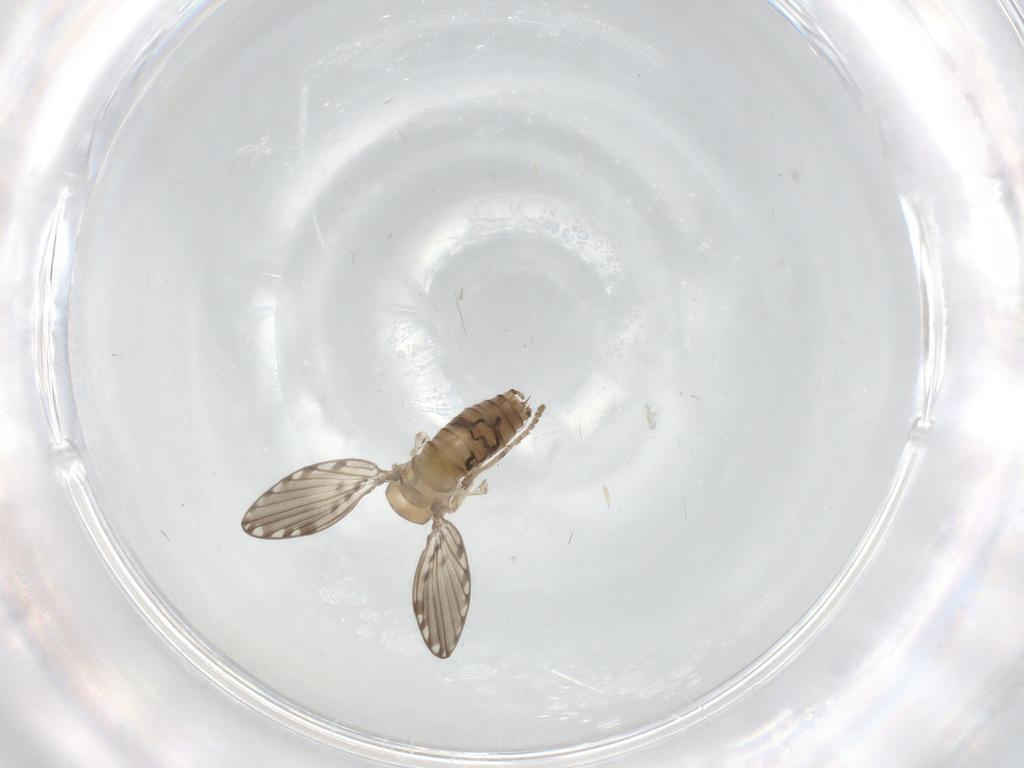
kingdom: Animalia
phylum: Arthropoda
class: Insecta
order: Diptera
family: Psychodidae
